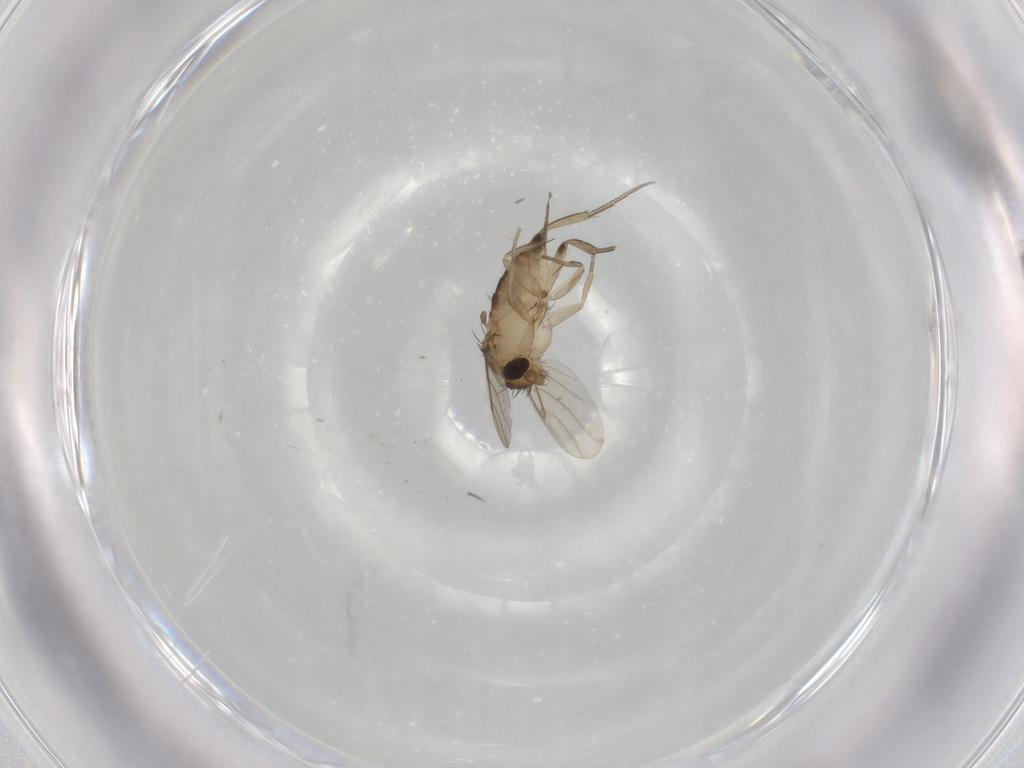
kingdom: Animalia
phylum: Arthropoda
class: Insecta
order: Diptera
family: Phoridae
